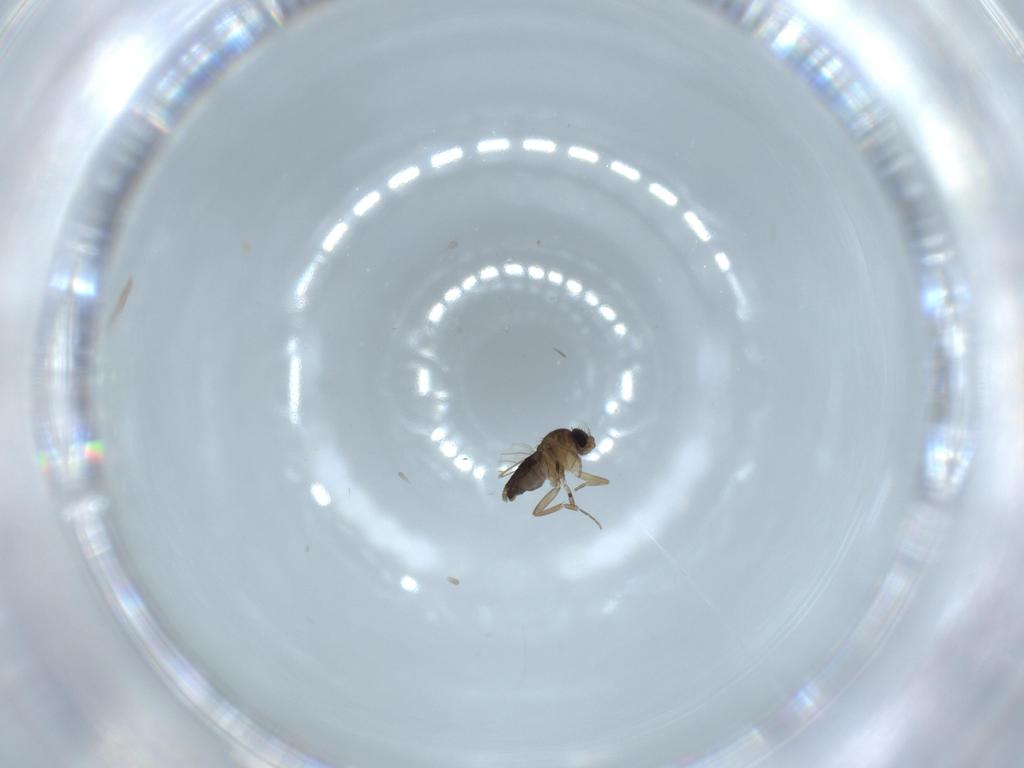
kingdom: Animalia
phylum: Arthropoda
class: Insecta
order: Diptera
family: Phoridae
